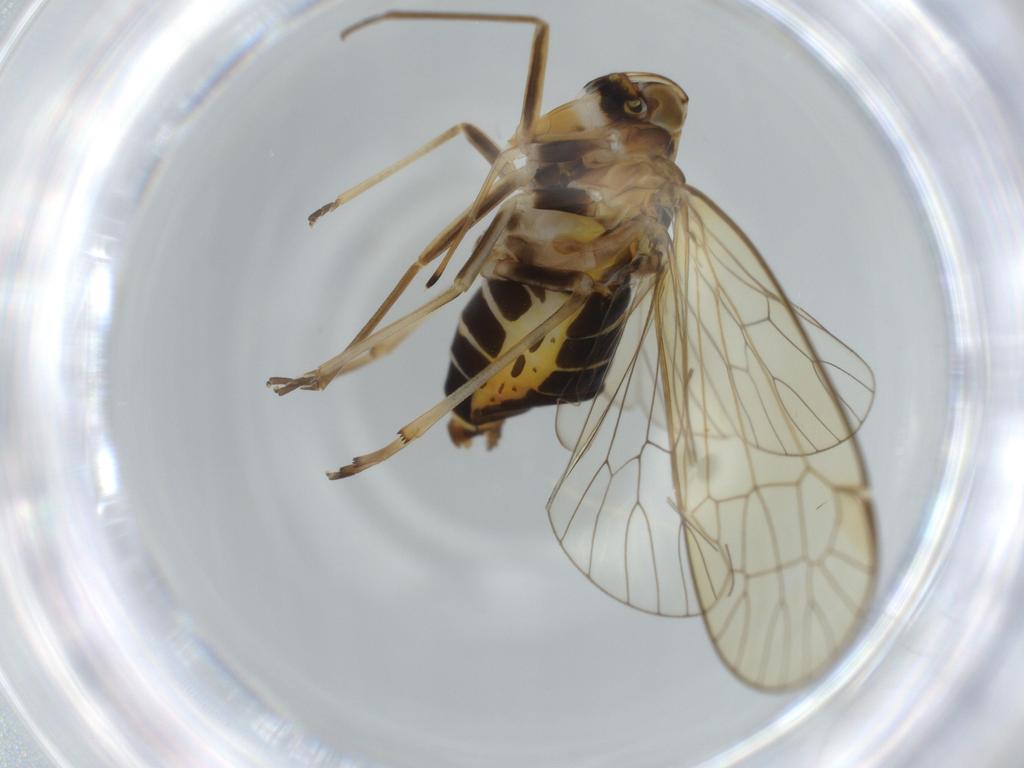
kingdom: Animalia
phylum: Arthropoda
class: Insecta
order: Hemiptera
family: Kinnaridae
